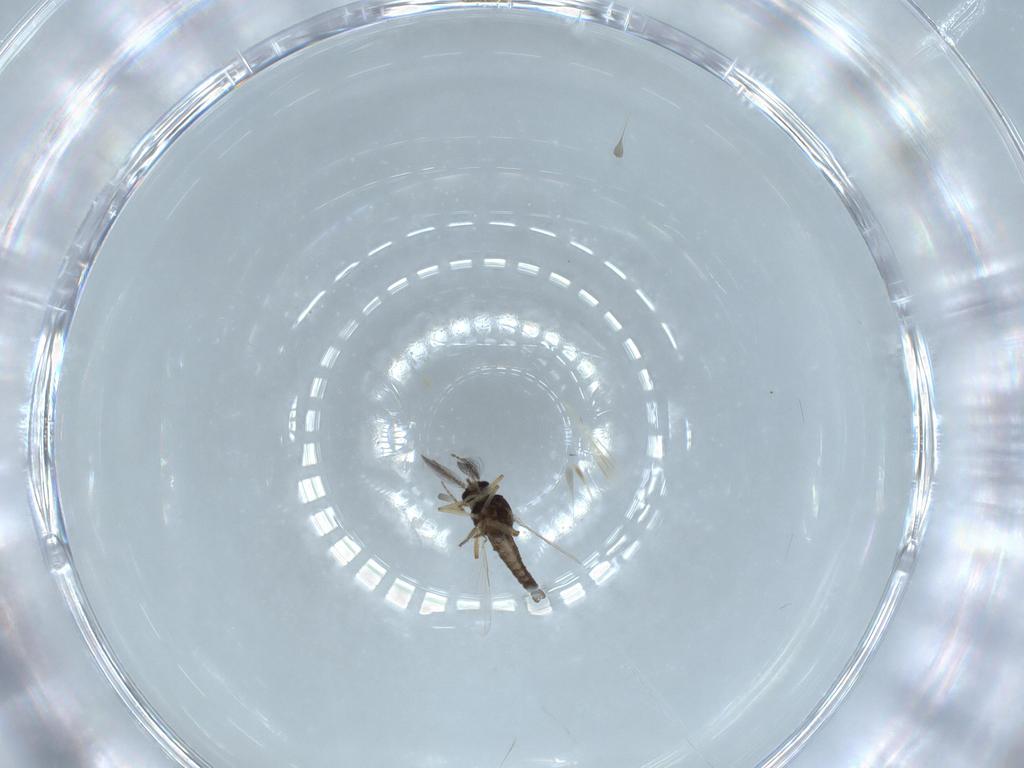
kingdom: Animalia
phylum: Arthropoda
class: Insecta
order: Diptera
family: Ceratopogonidae
